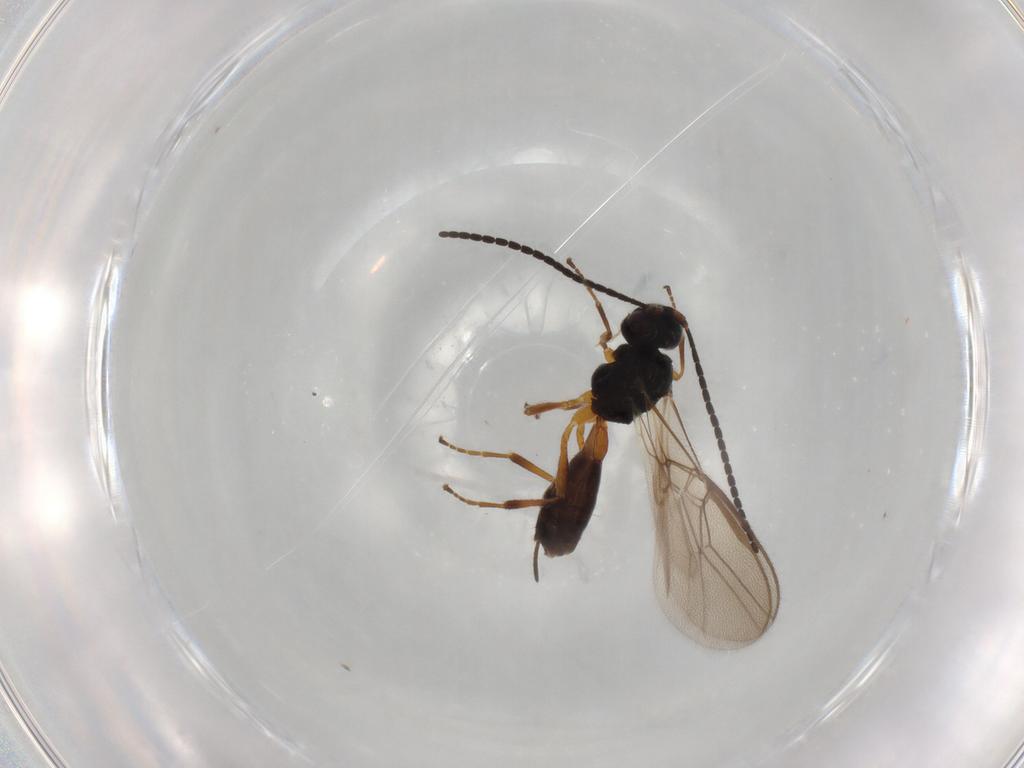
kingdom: Animalia
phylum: Arthropoda
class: Insecta
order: Hymenoptera
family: Braconidae
